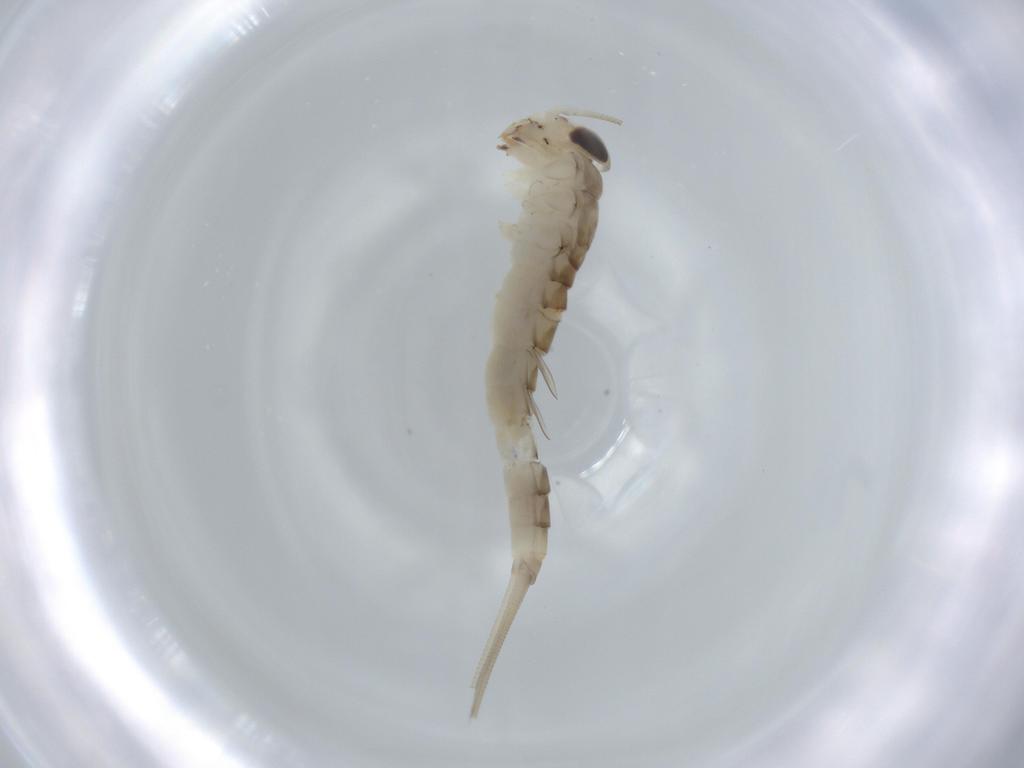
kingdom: Animalia
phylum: Arthropoda
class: Insecta
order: Ephemeroptera
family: Baetidae
